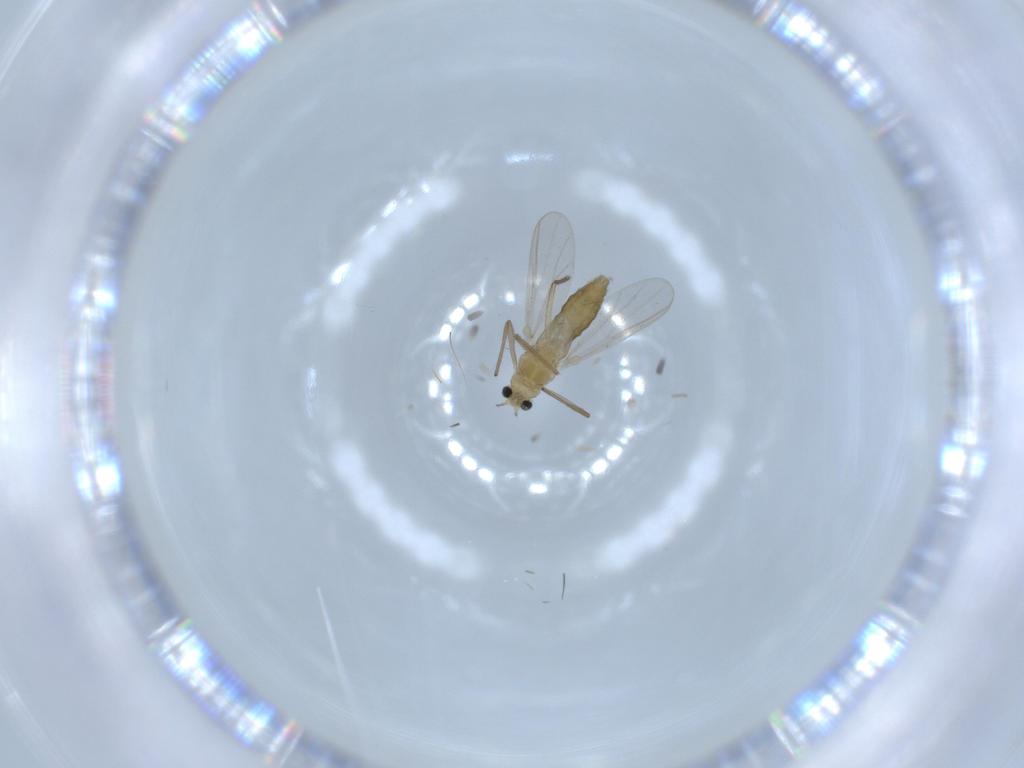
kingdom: Animalia
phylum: Arthropoda
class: Insecta
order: Diptera
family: Chironomidae
